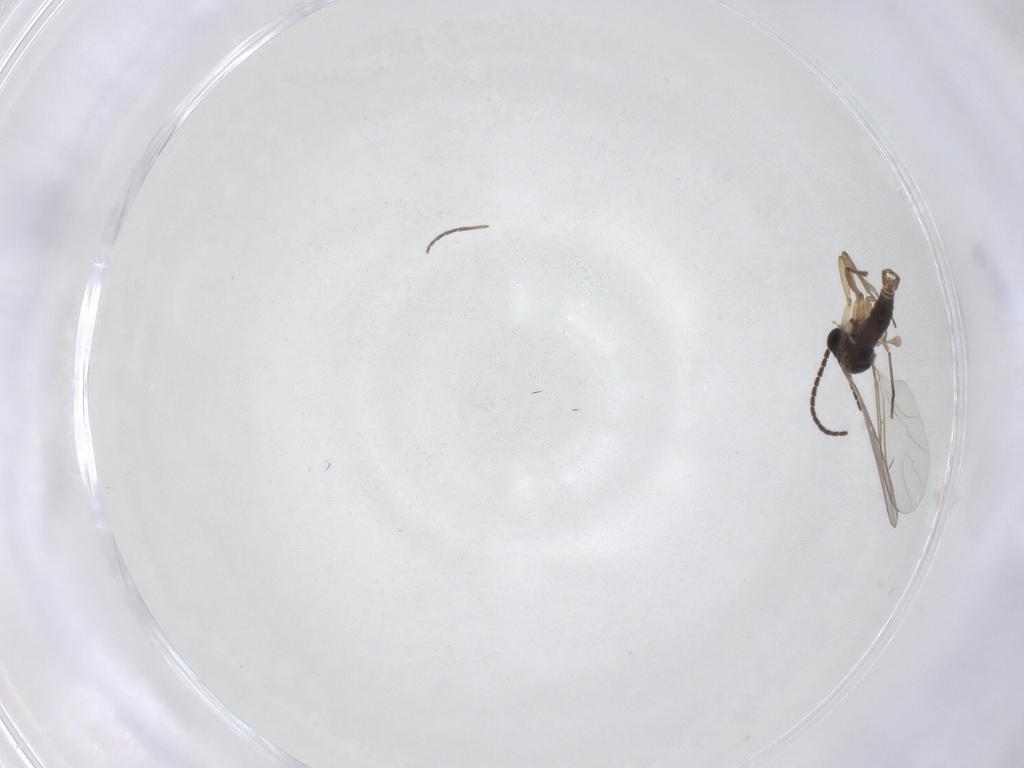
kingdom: Animalia
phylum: Arthropoda
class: Insecta
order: Diptera
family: Sciaridae
